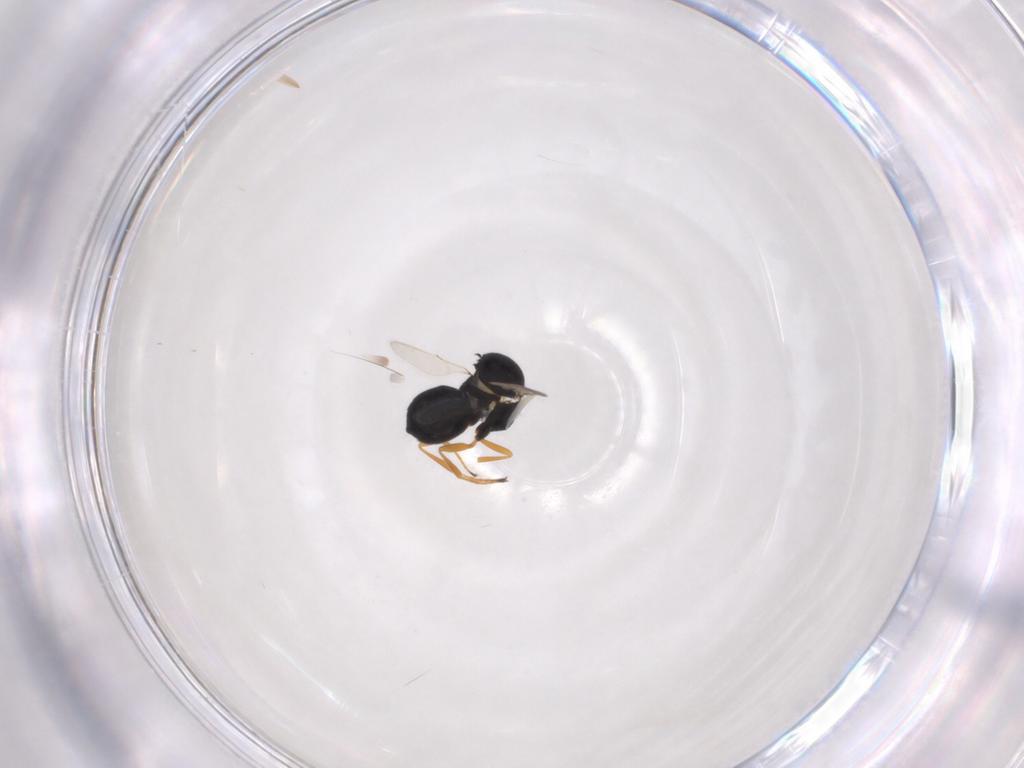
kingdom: Animalia
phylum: Arthropoda
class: Insecta
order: Hymenoptera
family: Scelionidae
